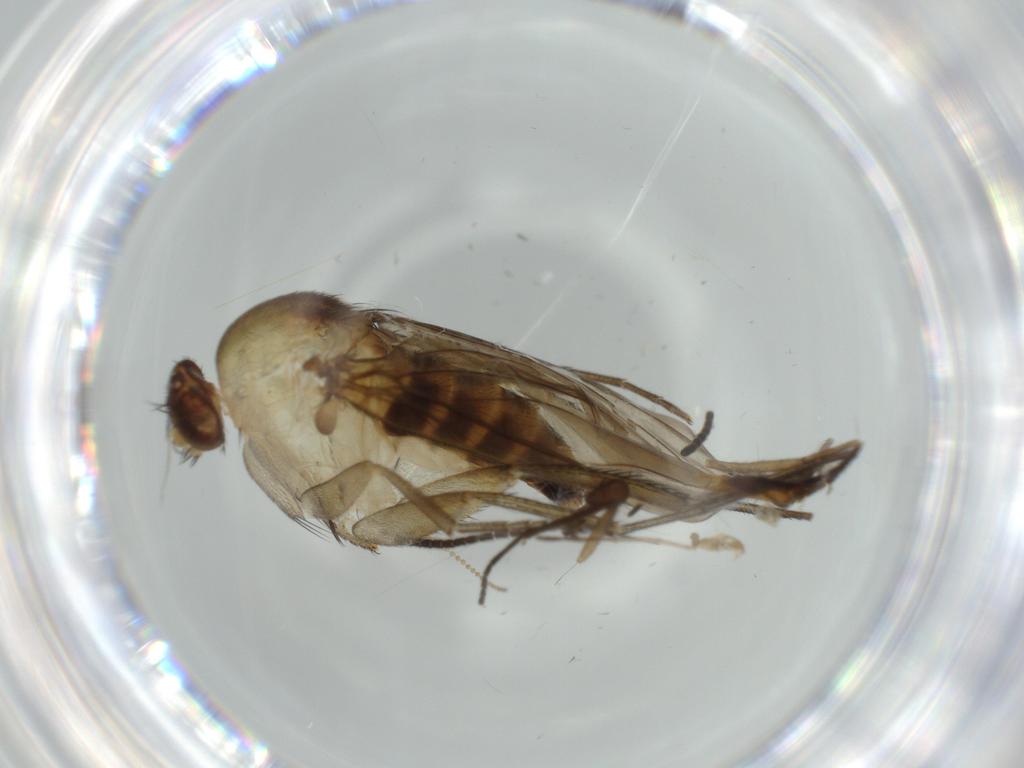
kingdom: Animalia
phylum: Arthropoda
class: Insecta
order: Diptera
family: Limoniidae
